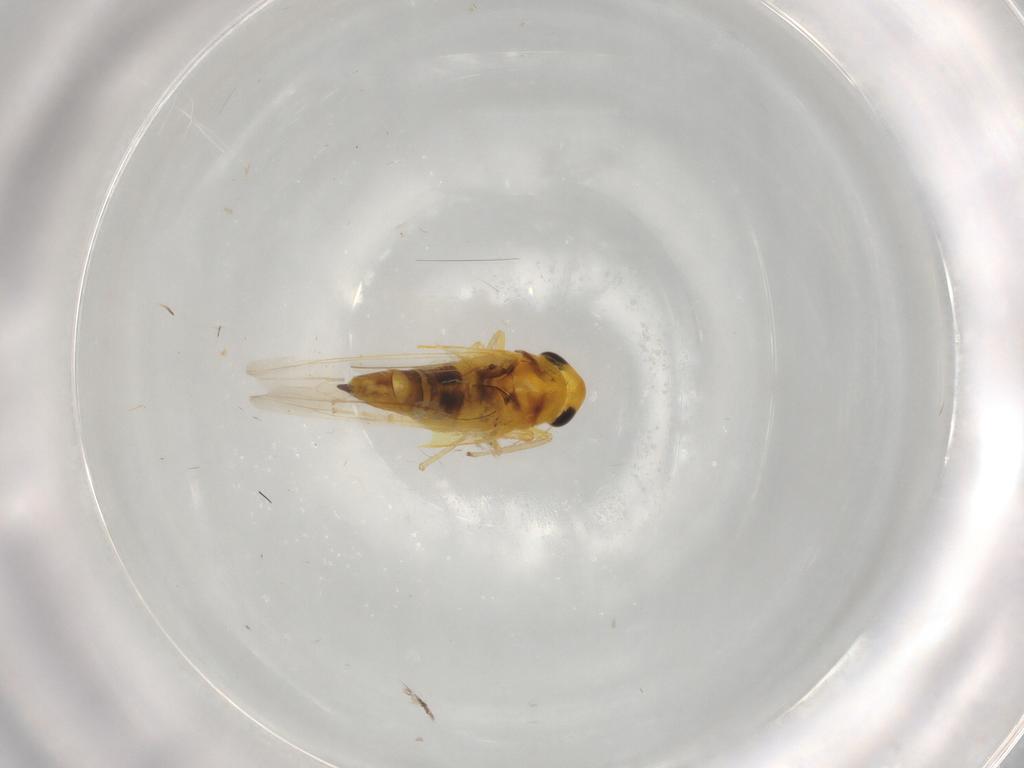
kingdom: Animalia
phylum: Arthropoda
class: Insecta
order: Hemiptera
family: Cicadellidae
